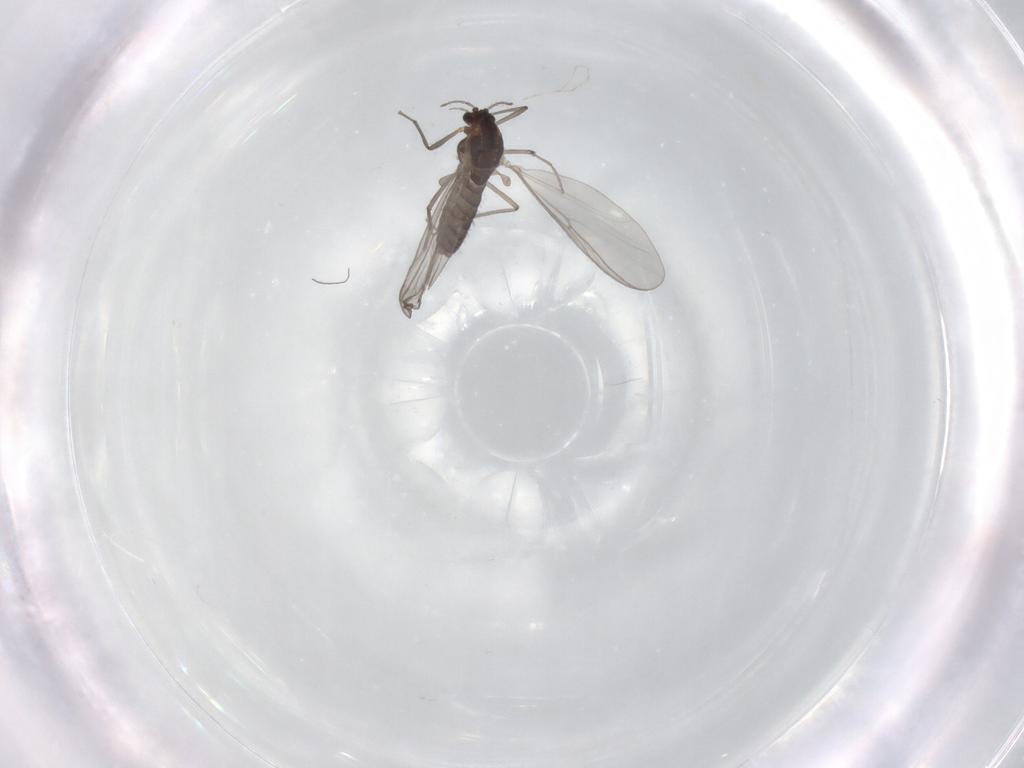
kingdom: Animalia
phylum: Arthropoda
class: Insecta
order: Diptera
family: Chironomidae
